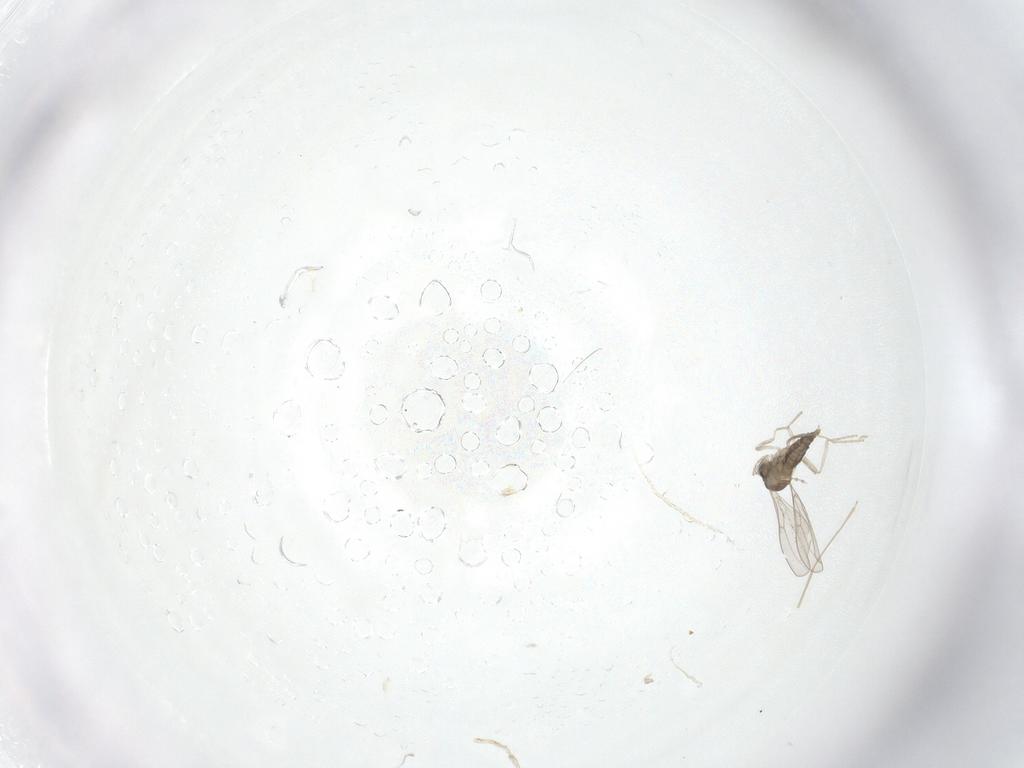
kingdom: Animalia
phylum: Arthropoda
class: Insecta
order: Diptera
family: Cecidomyiidae
